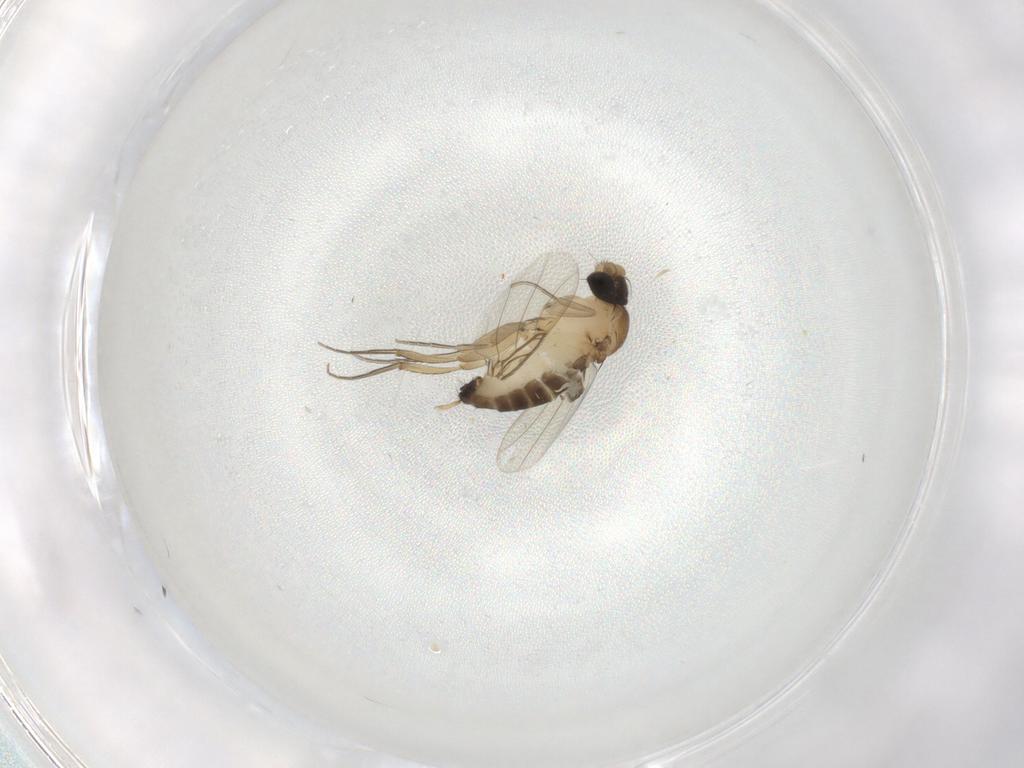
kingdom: Animalia
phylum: Arthropoda
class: Insecta
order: Diptera
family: Phoridae
